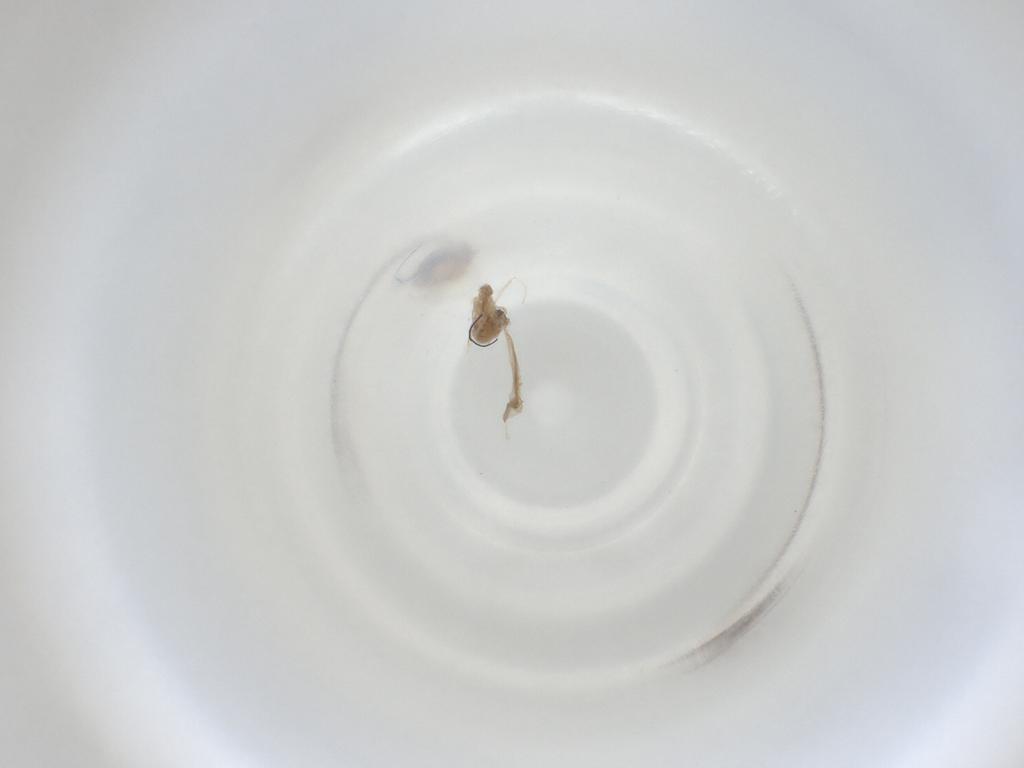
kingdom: Animalia
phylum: Arthropoda
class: Insecta
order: Diptera
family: Cecidomyiidae
